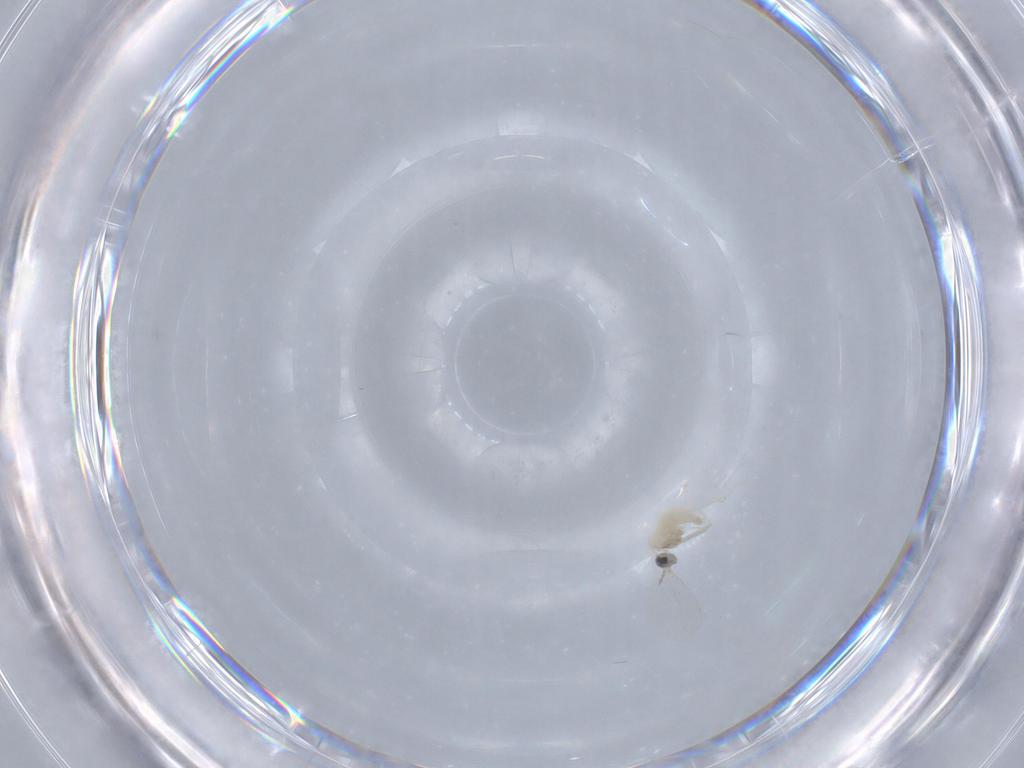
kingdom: Animalia
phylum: Arthropoda
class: Insecta
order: Diptera
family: Cecidomyiidae
